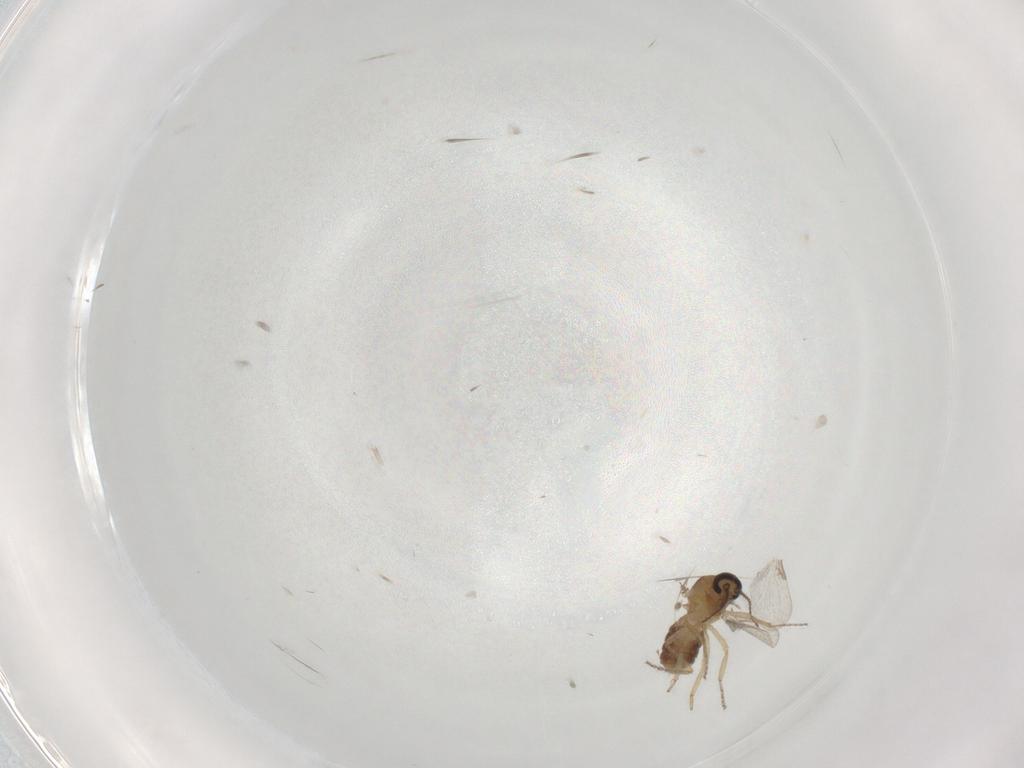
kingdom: Animalia
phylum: Arthropoda
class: Insecta
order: Diptera
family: Ceratopogonidae
